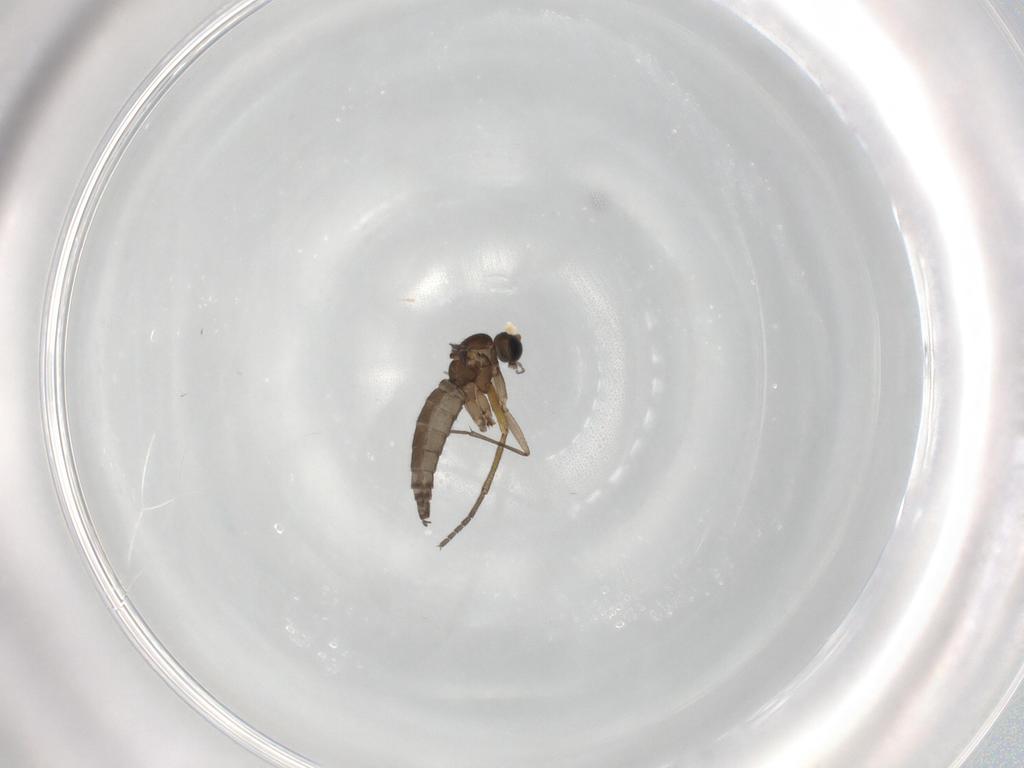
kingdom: Animalia
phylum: Arthropoda
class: Insecta
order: Diptera
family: Sciaridae
